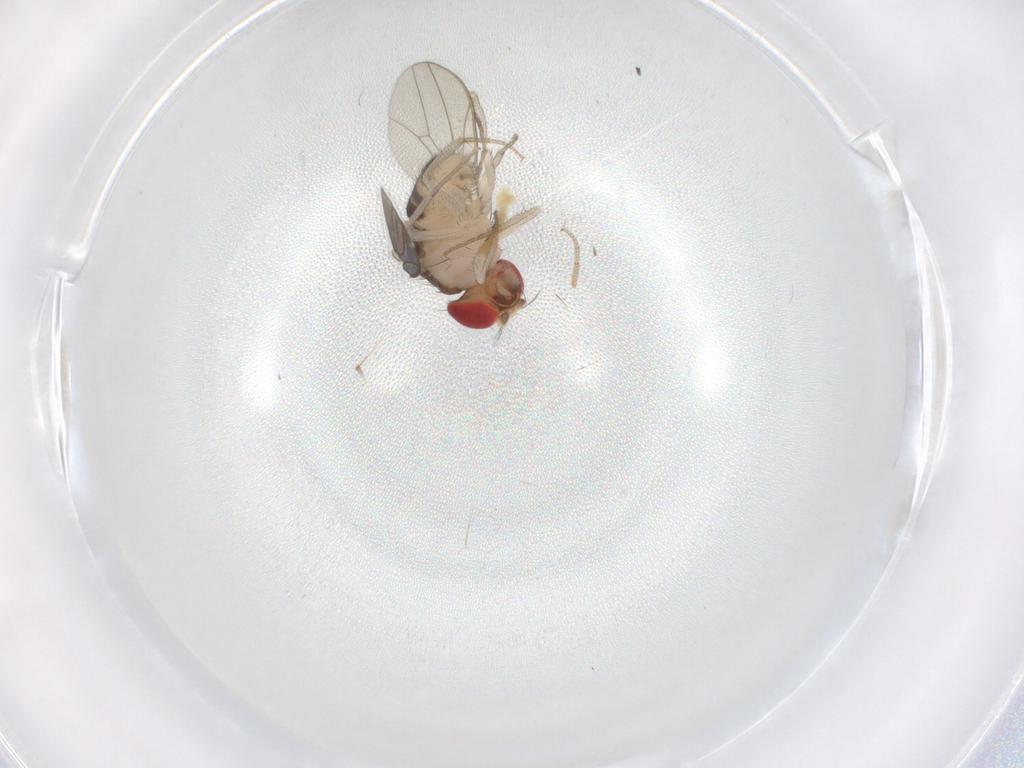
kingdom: Animalia
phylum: Arthropoda
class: Insecta
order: Diptera
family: Drosophilidae
